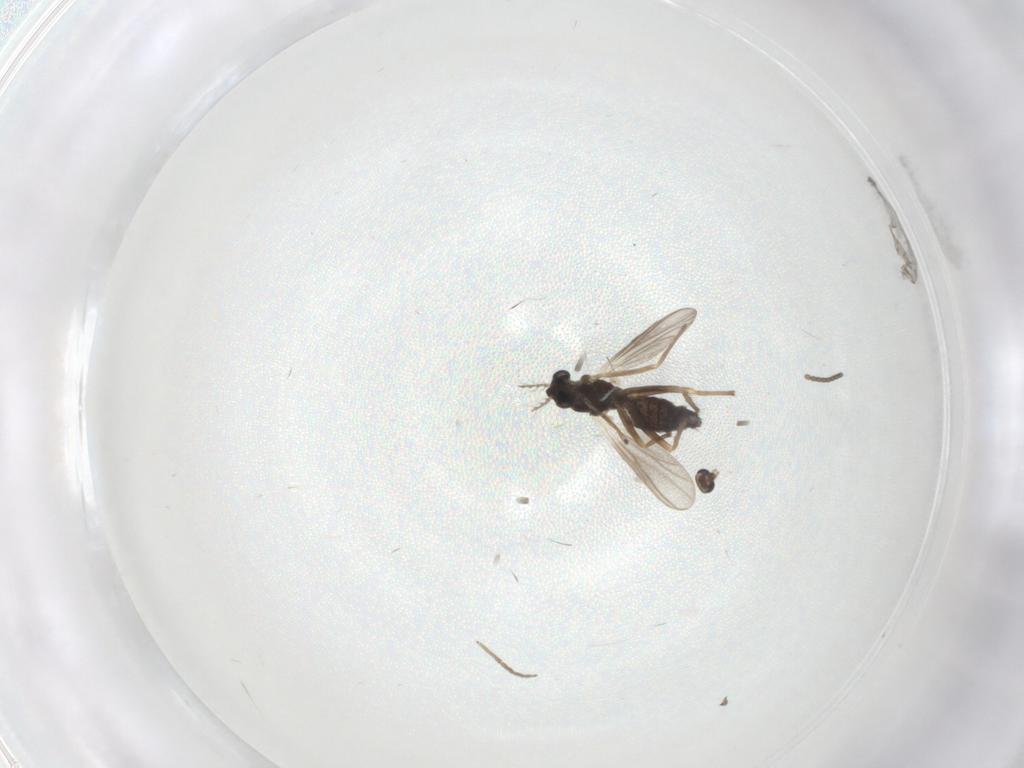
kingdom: Animalia
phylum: Arthropoda
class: Insecta
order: Diptera
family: Chironomidae
